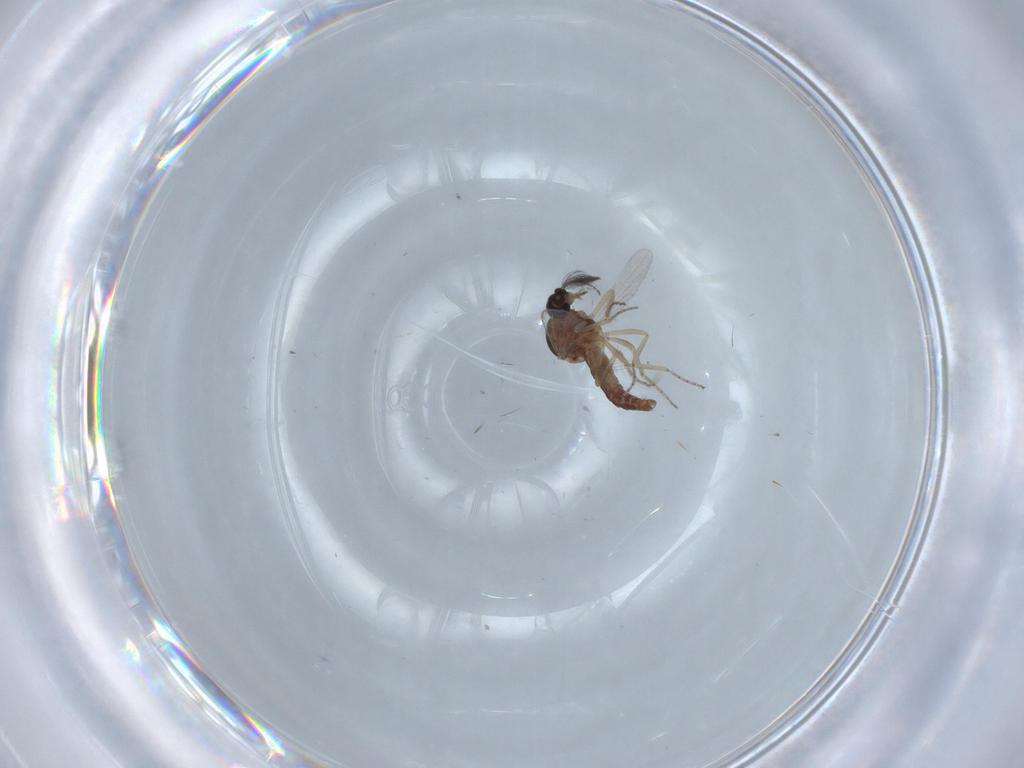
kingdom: Animalia
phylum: Arthropoda
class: Insecta
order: Diptera
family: Ceratopogonidae
